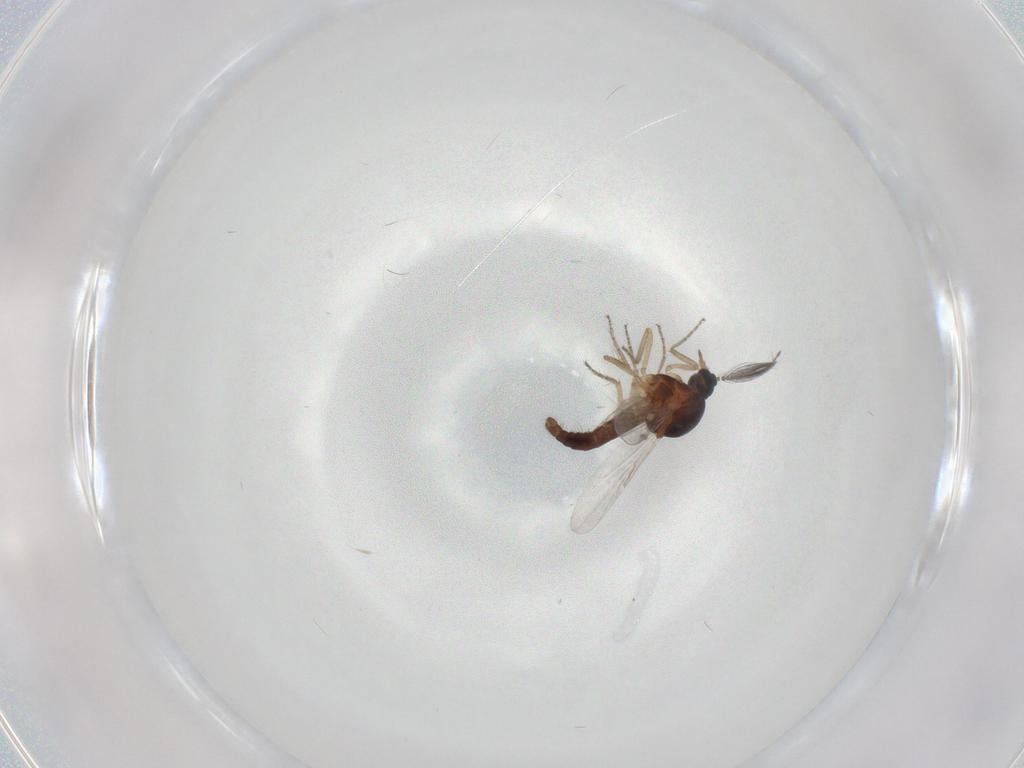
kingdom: Animalia
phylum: Arthropoda
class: Insecta
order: Diptera
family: Ceratopogonidae
